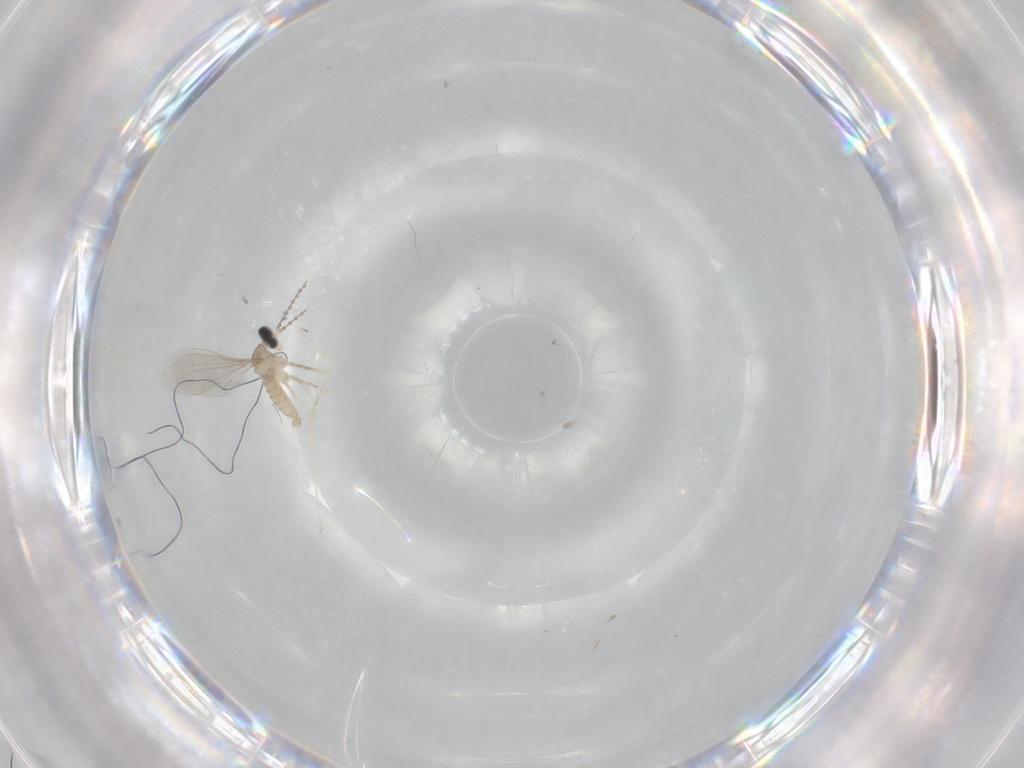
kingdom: Animalia
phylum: Arthropoda
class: Insecta
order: Diptera
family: Cecidomyiidae
